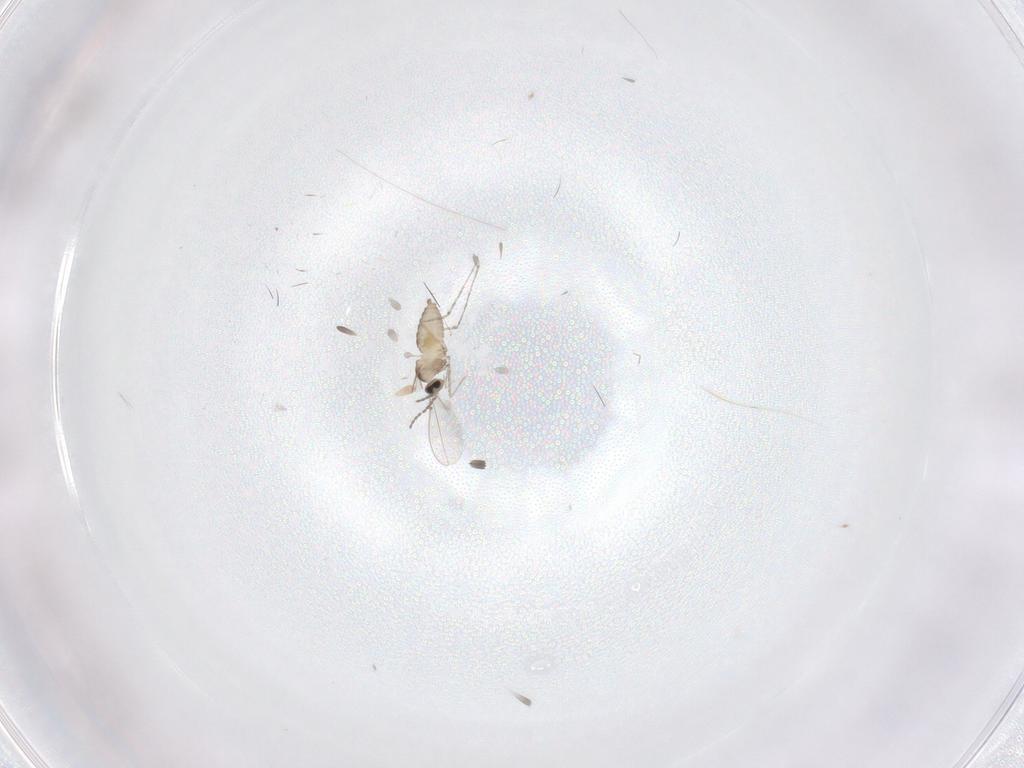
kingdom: Animalia
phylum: Arthropoda
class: Insecta
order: Diptera
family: Cecidomyiidae
